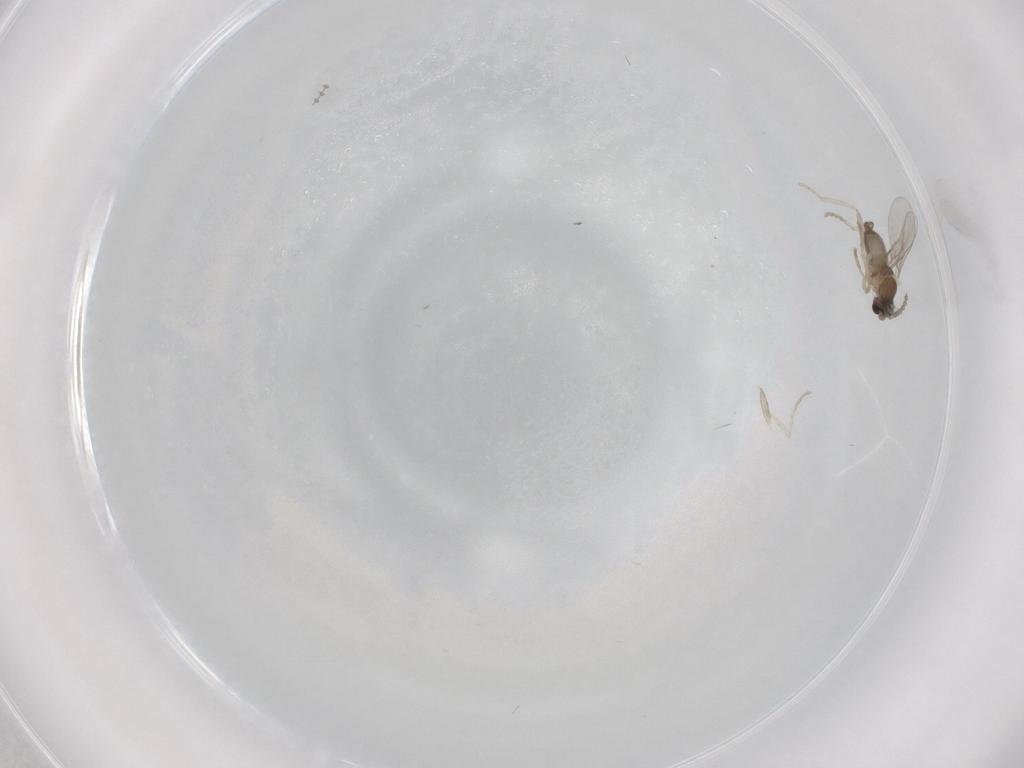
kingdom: Animalia
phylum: Arthropoda
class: Insecta
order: Diptera
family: Cecidomyiidae
